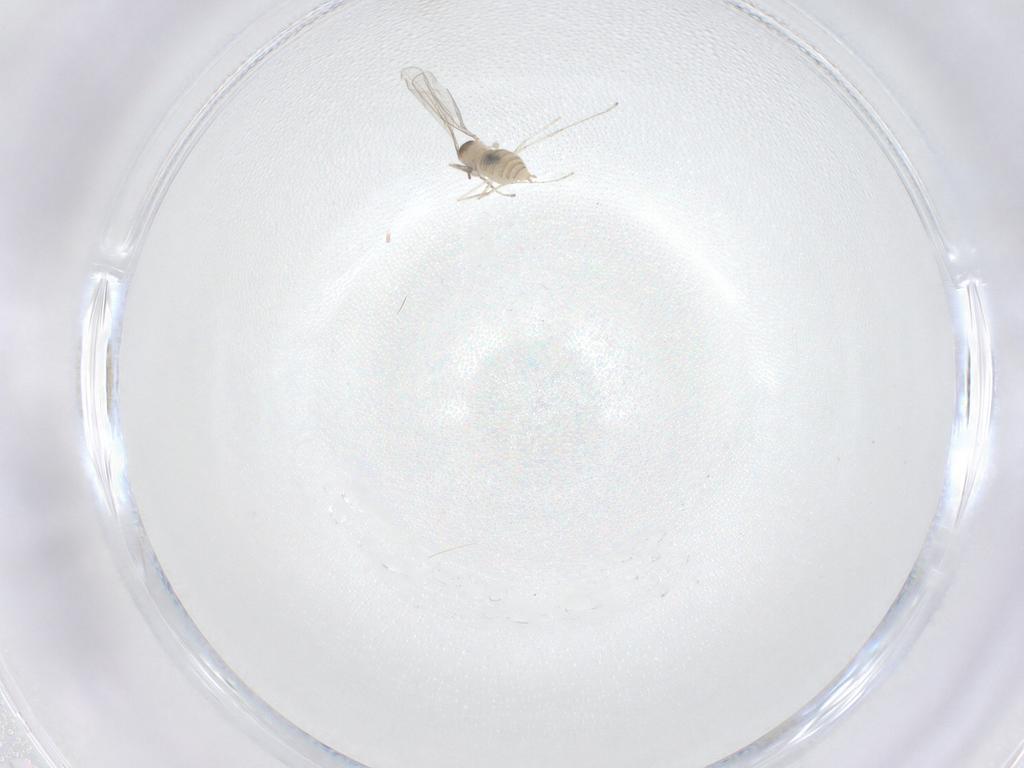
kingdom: Animalia
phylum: Arthropoda
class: Insecta
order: Diptera
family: Cecidomyiidae
